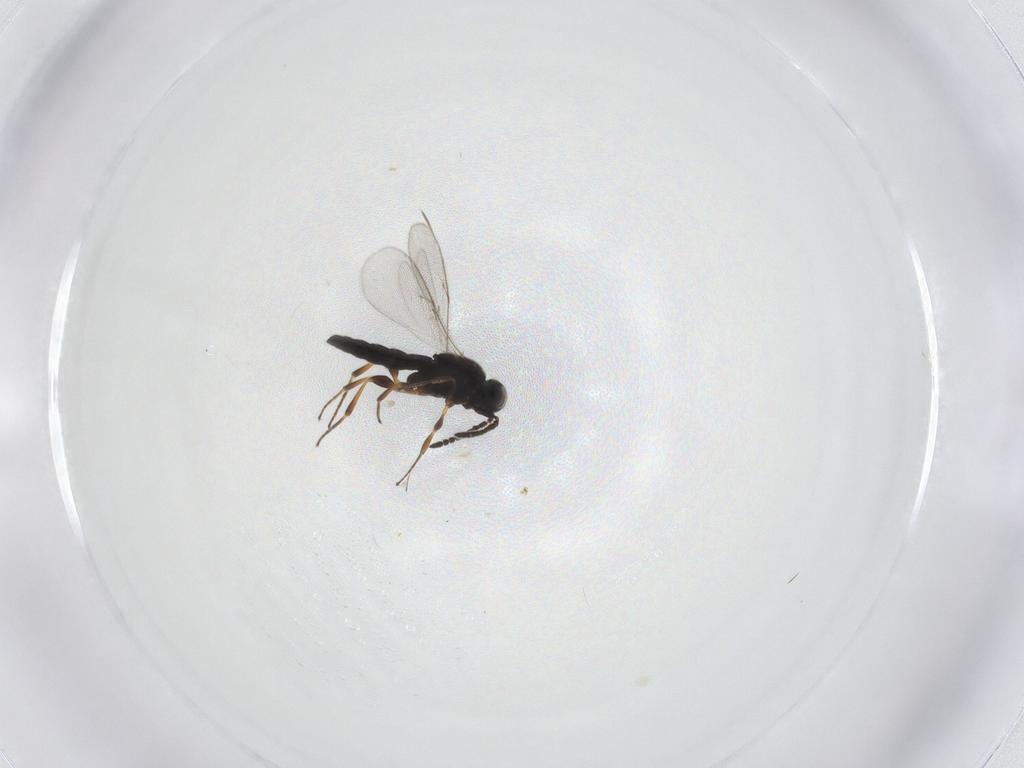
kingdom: Animalia
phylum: Arthropoda
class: Insecta
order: Hymenoptera
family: Scelionidae
